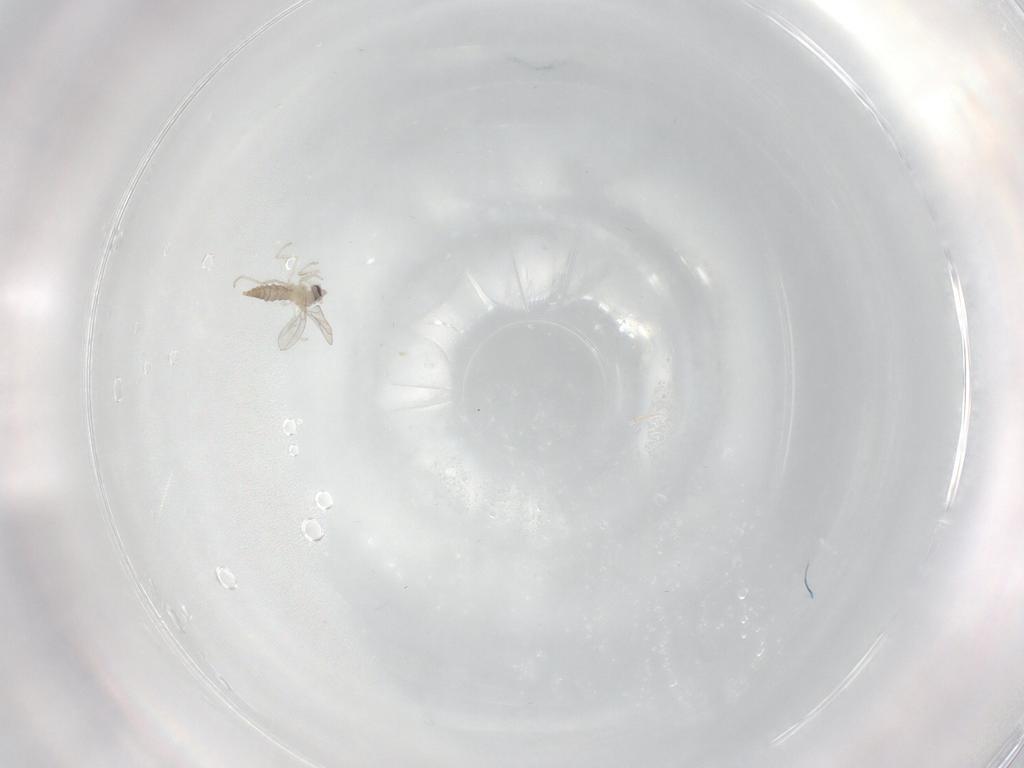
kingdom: Animalia
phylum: Arthropoda
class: Insecta
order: Diptera
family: Cecidomyiidae
